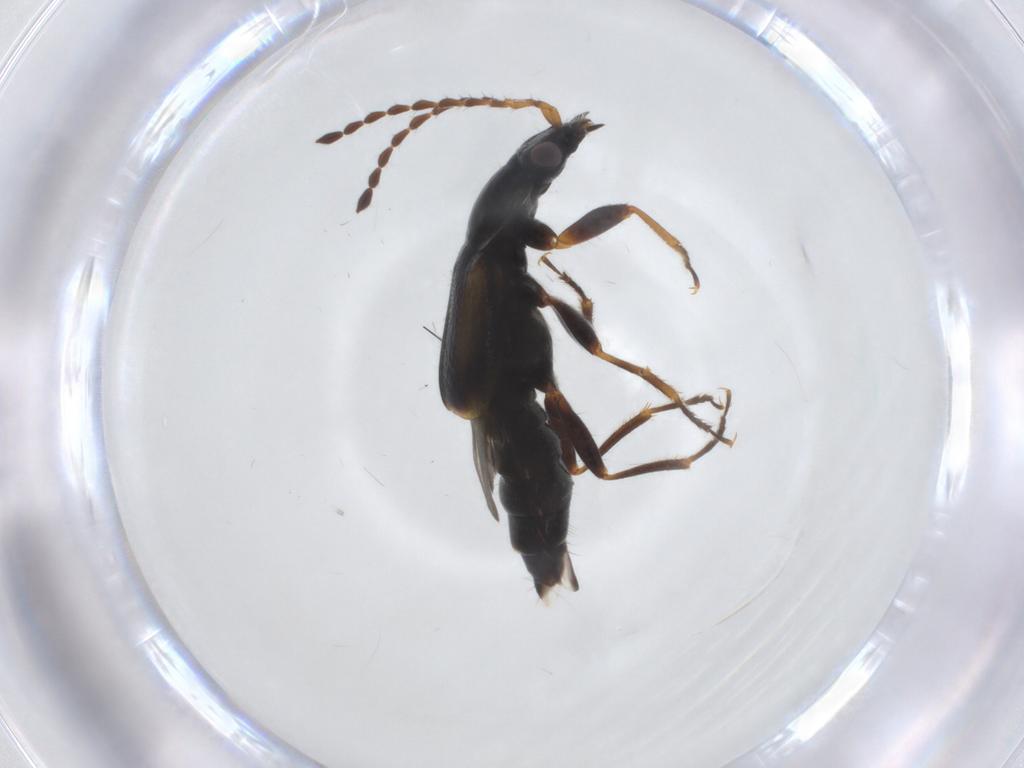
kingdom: Animalia
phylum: Arthropoda
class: Insecta
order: Coleoptera
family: Staphylinidae
